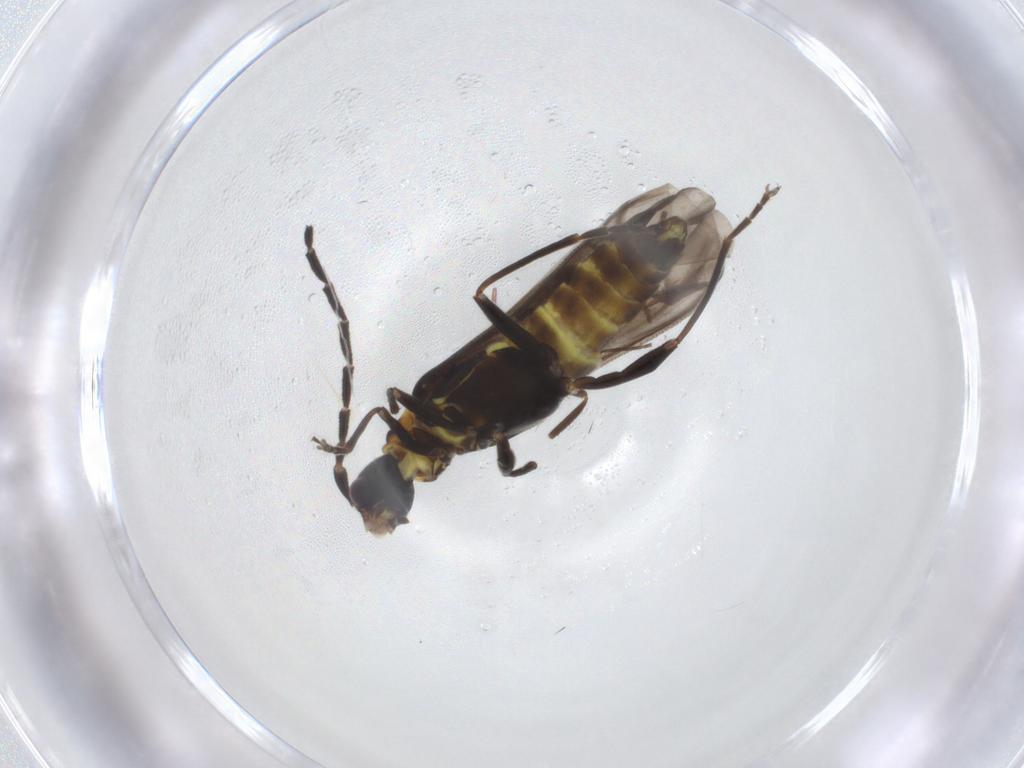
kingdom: Animalia
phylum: Arthropoda
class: Insecta
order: Coleoptera
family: Cantharidae
